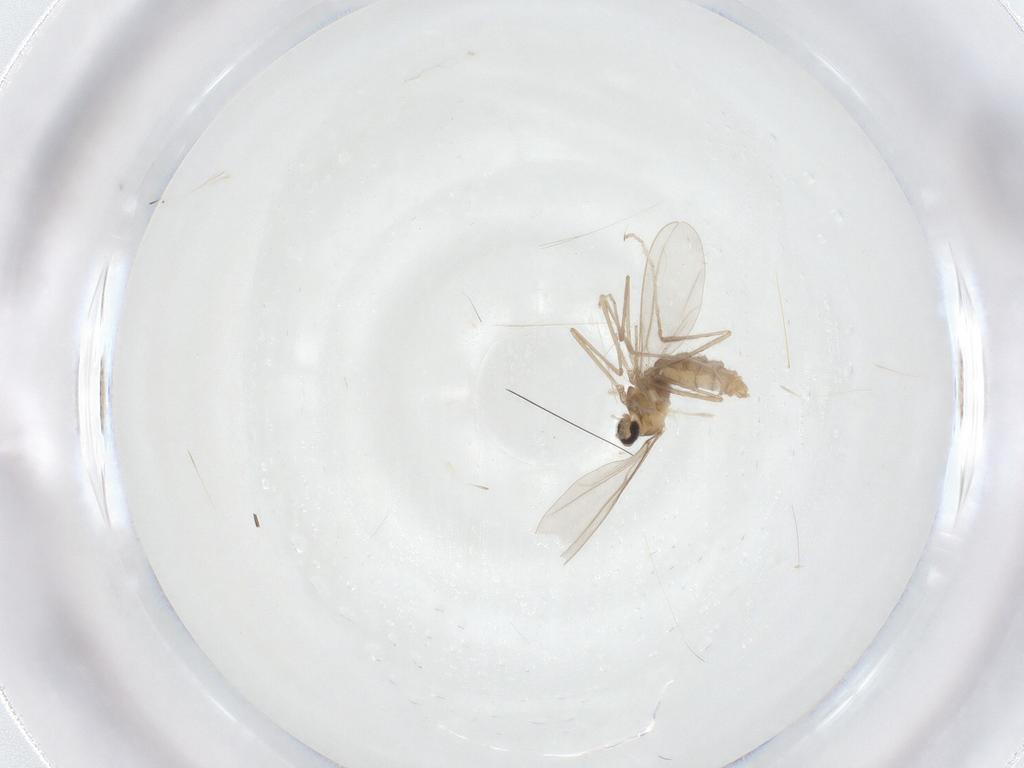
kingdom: Animalia
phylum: Arthropoda
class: Insecta
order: Diptera
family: Cecidomyiidae
